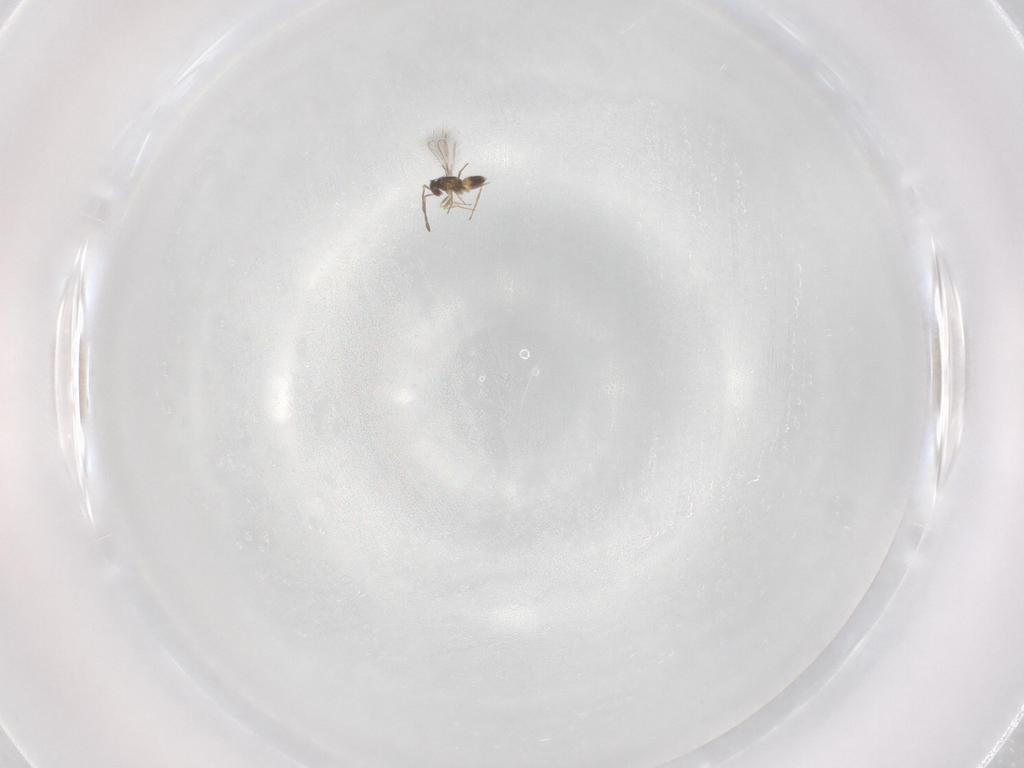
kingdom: Animalia
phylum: Arthropoda
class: Insecta
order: Hymenoptera
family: Mymaridae
